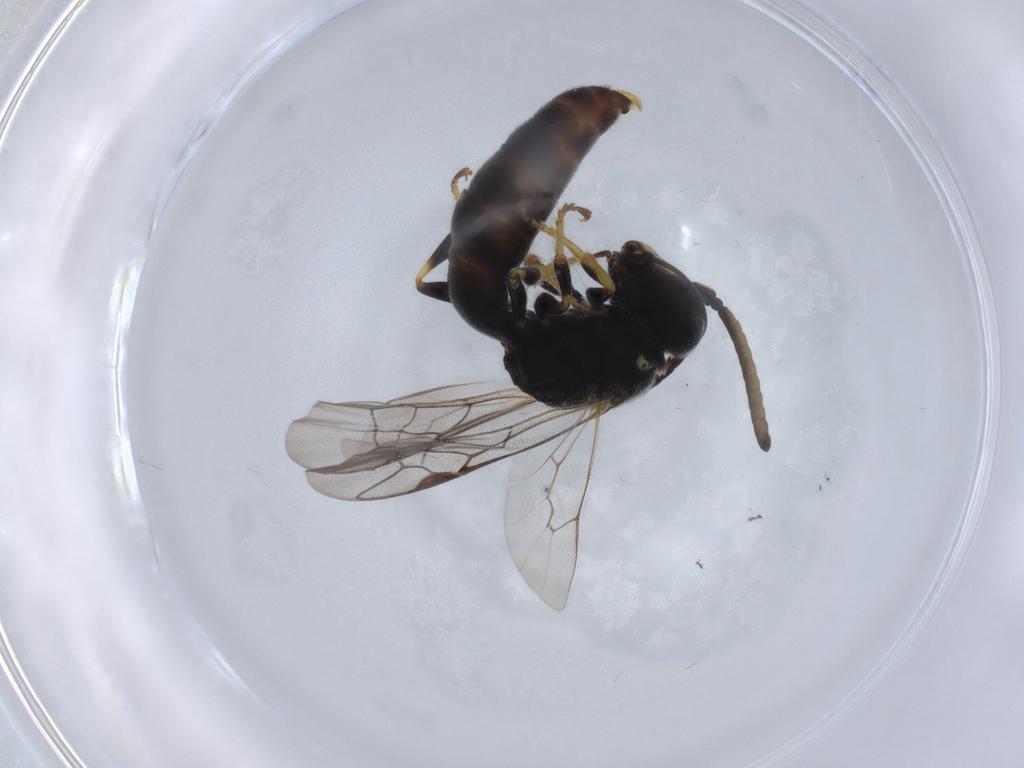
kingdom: Animalia
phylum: Arthropoda
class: Insecta
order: Hymenoptera
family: Colletidae
